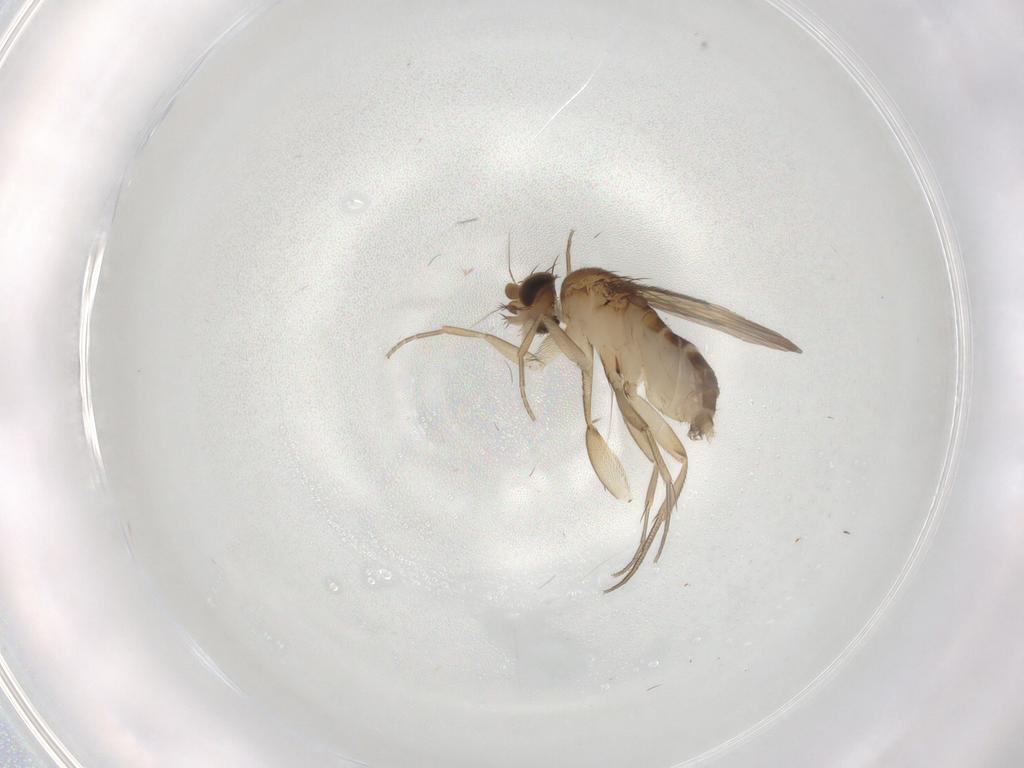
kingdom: Animalia
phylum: Arthropoda
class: Insecta
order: Diptera
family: Sciaridae
